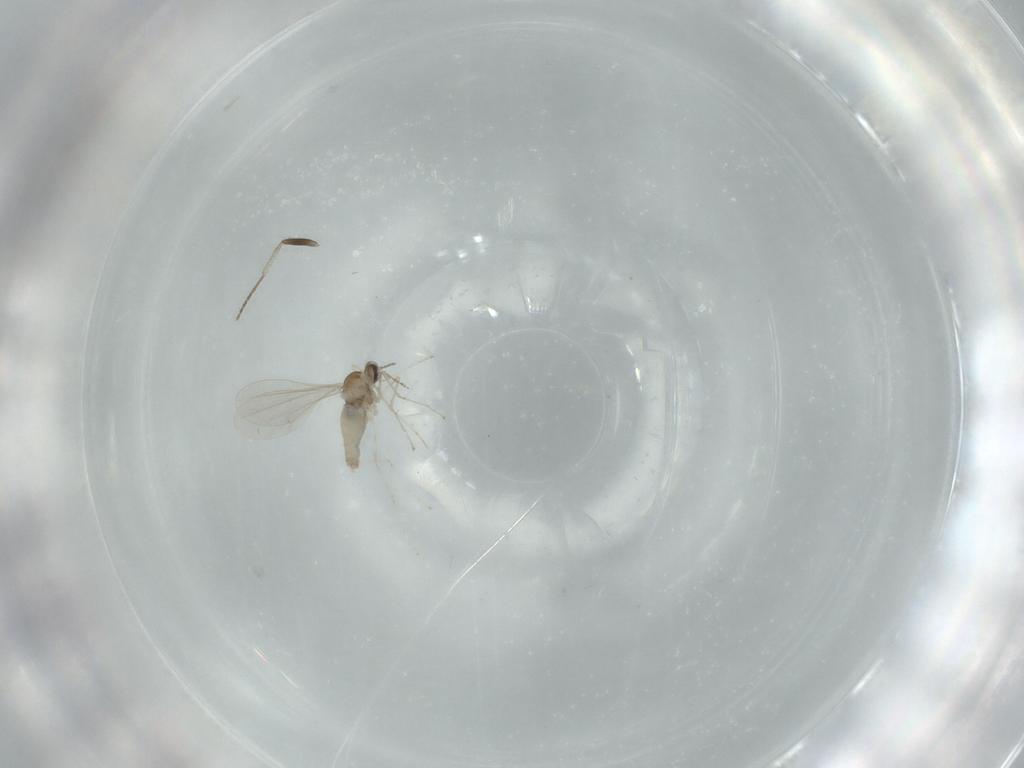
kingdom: Animalia
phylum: Arthropoda
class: Insecta
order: Diptera
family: Cecidomyiidae
